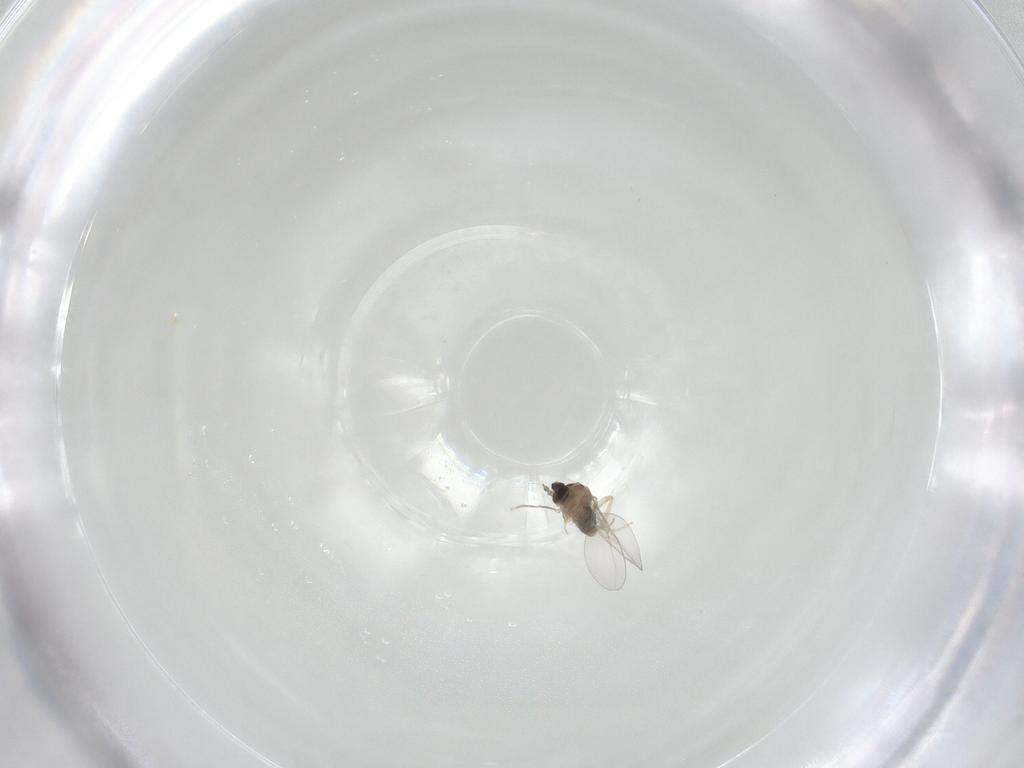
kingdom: Animalia
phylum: Arthropoda
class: Insecta
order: Diptera
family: Cecidomyiidae
